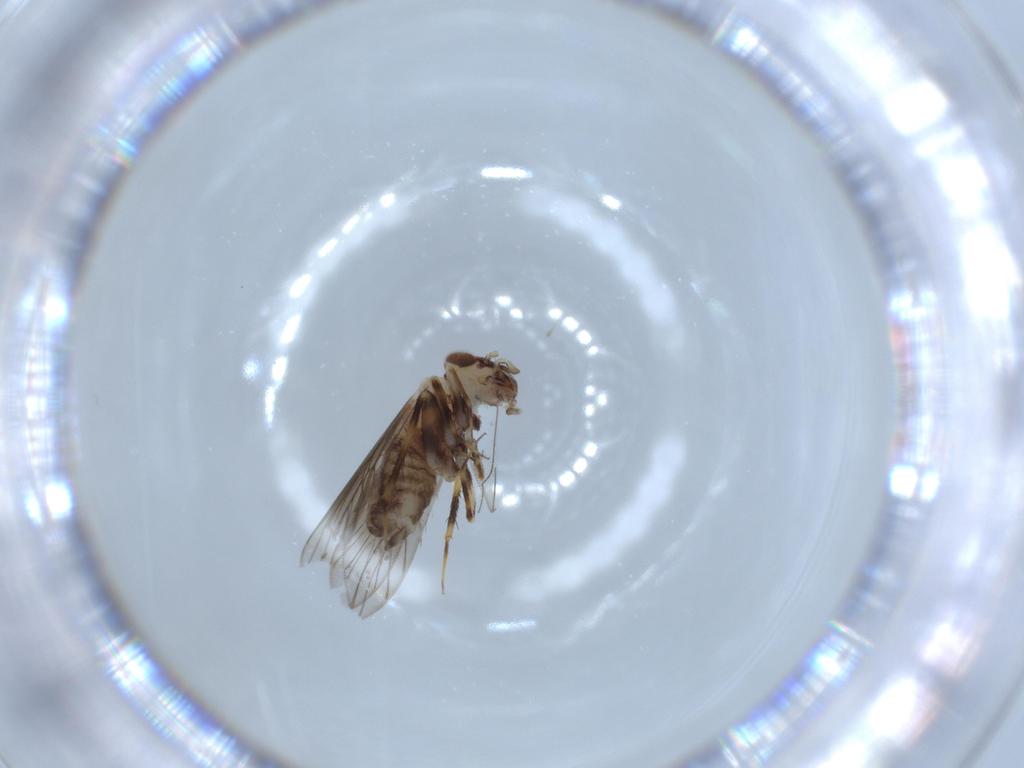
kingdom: Animalia
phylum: Arthropoda
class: Insecta
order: Psocodea
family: Lepidopsocidae
